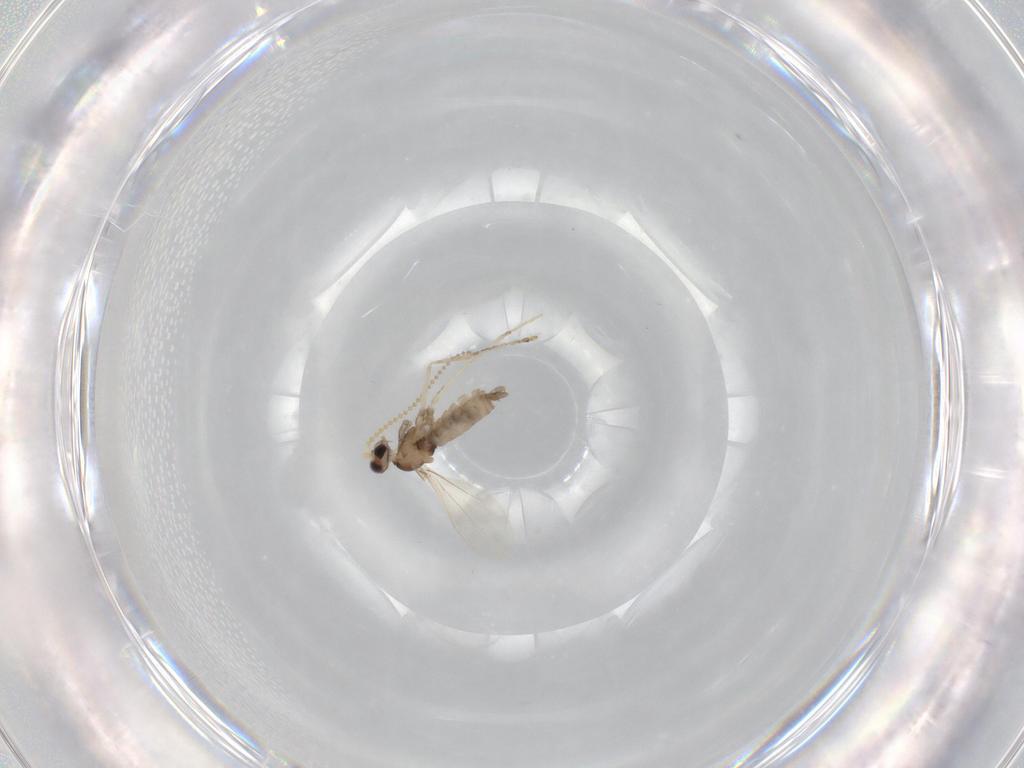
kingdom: Animalia
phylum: Arthropoda
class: Insecta
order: Diptera
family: Cecidomyiidae
